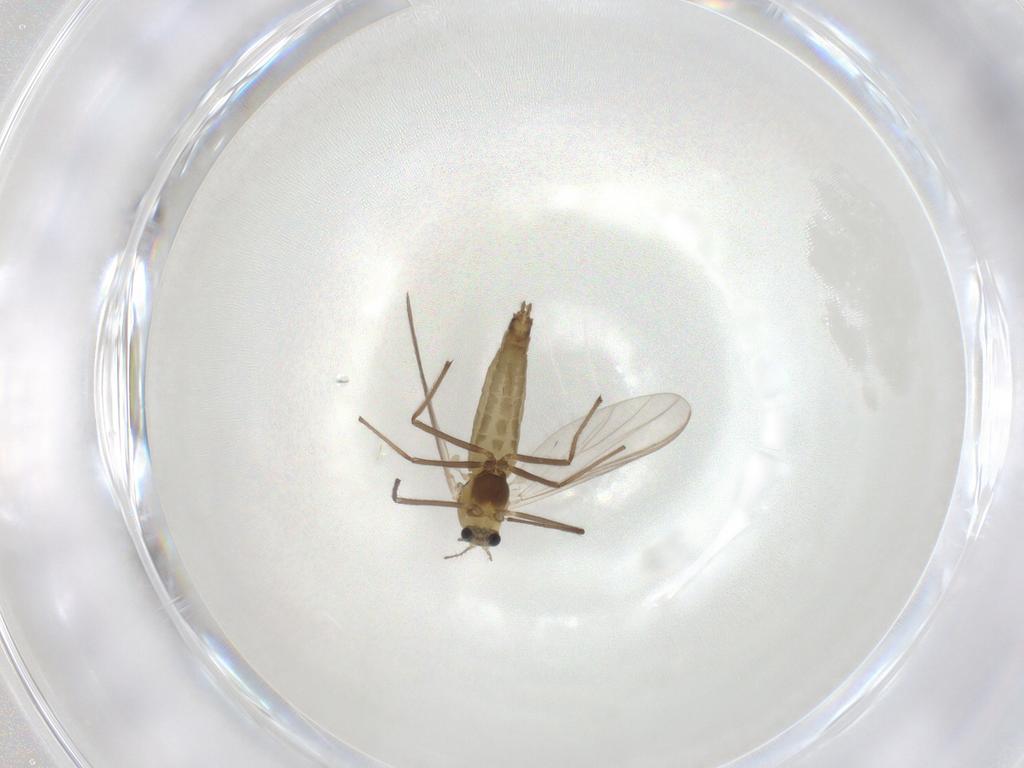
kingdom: Animalia
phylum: Arthropoda
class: Insecta
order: Diptera
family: Chironomidae
